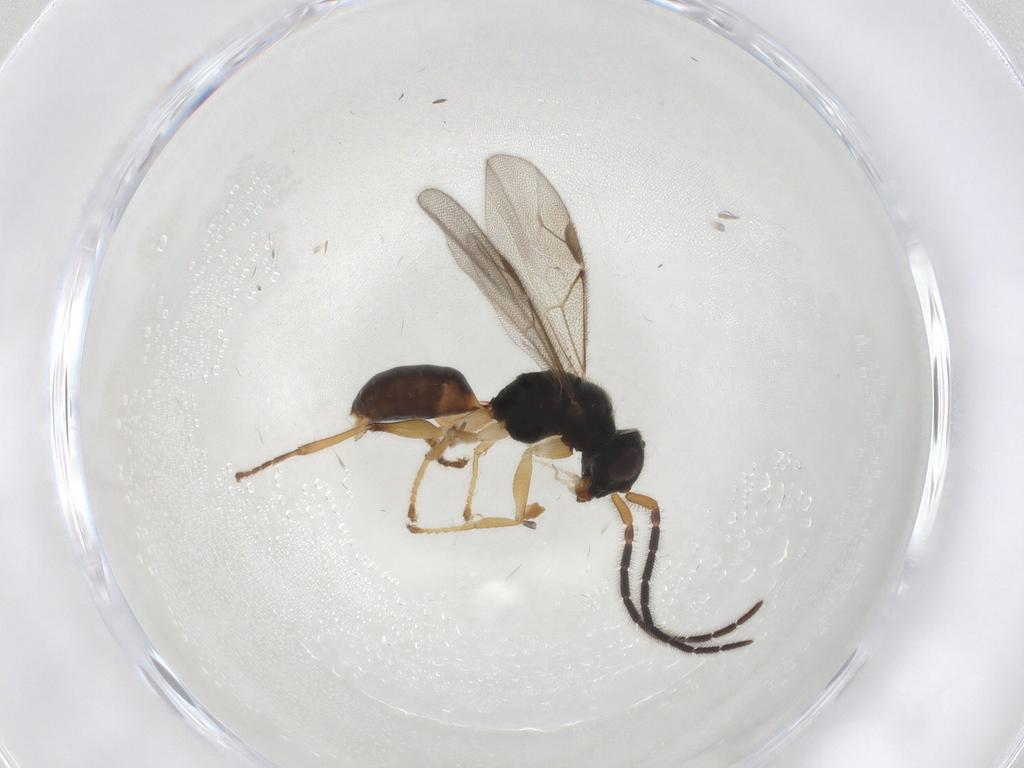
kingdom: Animalia
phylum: Arthropoda
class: Insecta
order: Hymenoptera
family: Dryinidae
